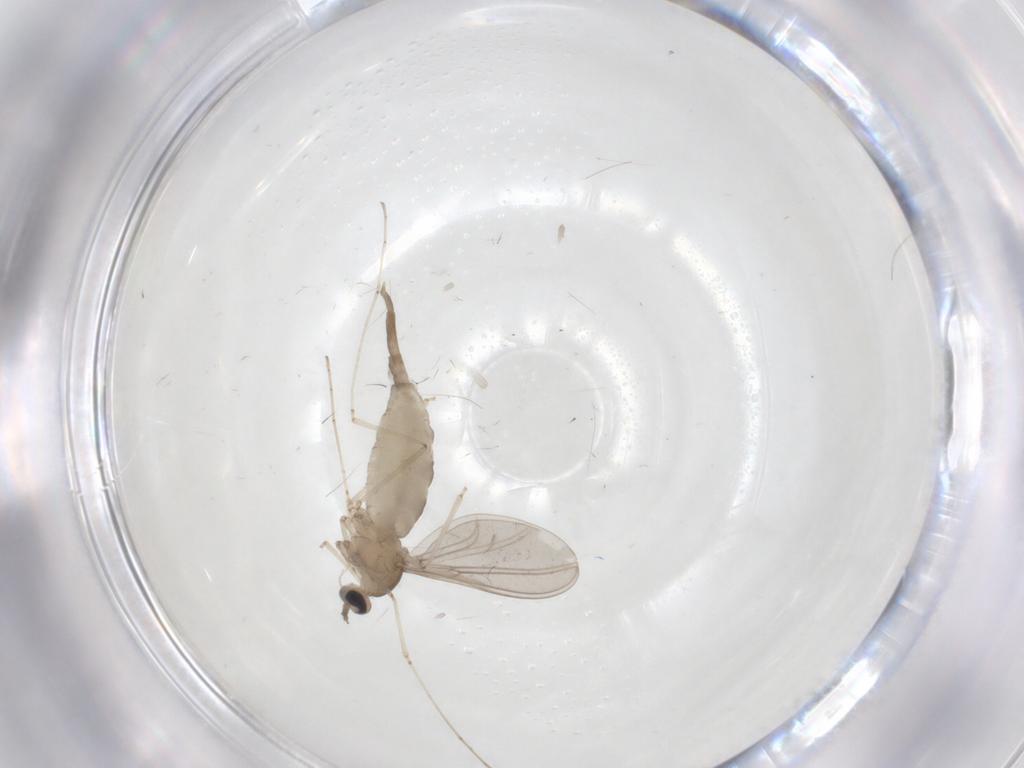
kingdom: Animalia
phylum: Arthropoda
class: Insecta
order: Diptera
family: Cecidomyiidae
